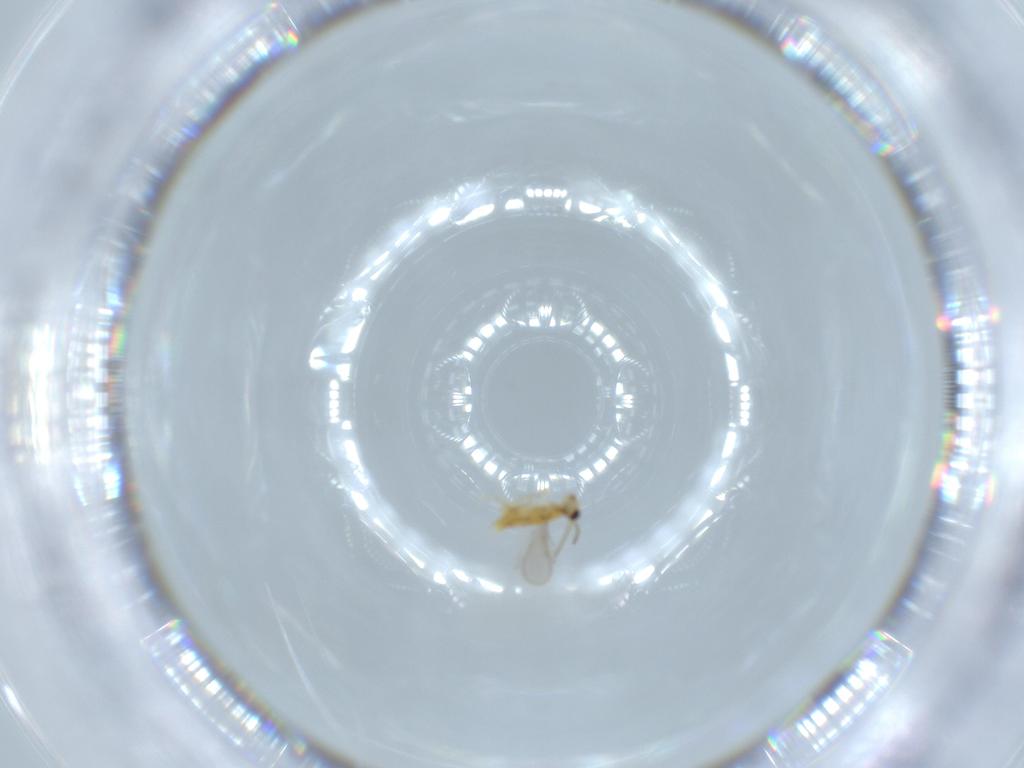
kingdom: Animalia
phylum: Arthropoda
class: Insecta
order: Hymenoptera
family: Aphelinidae
